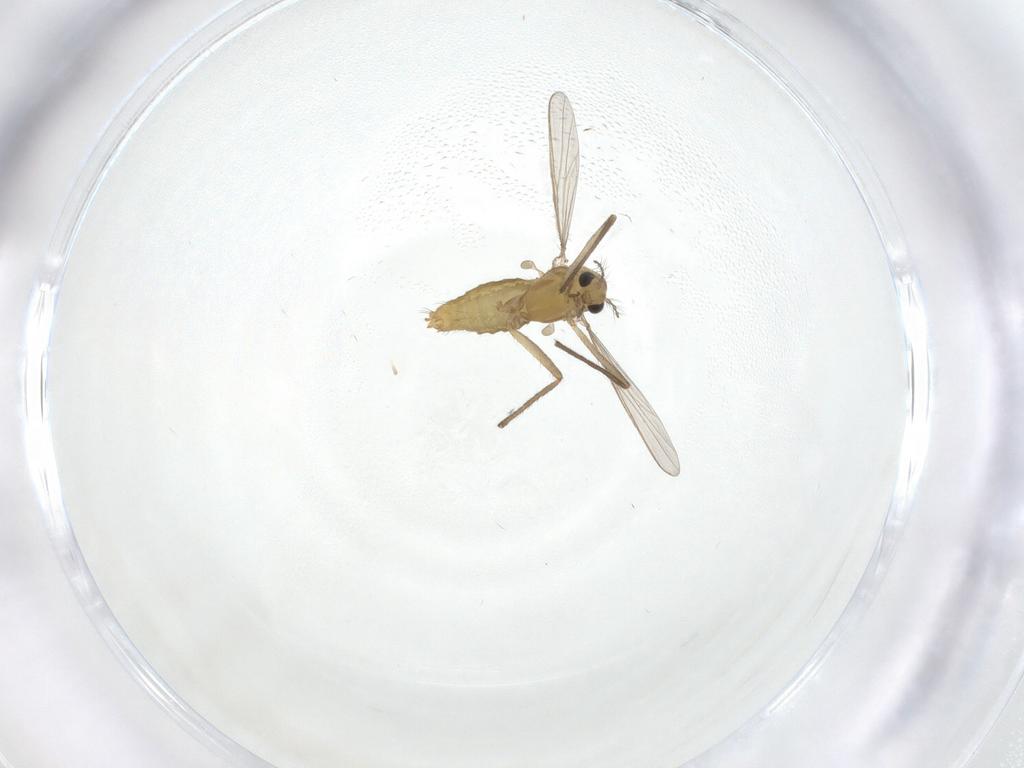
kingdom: Animalia
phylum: Arthropoda
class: Insecta
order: Diptera
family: Chironomidae
